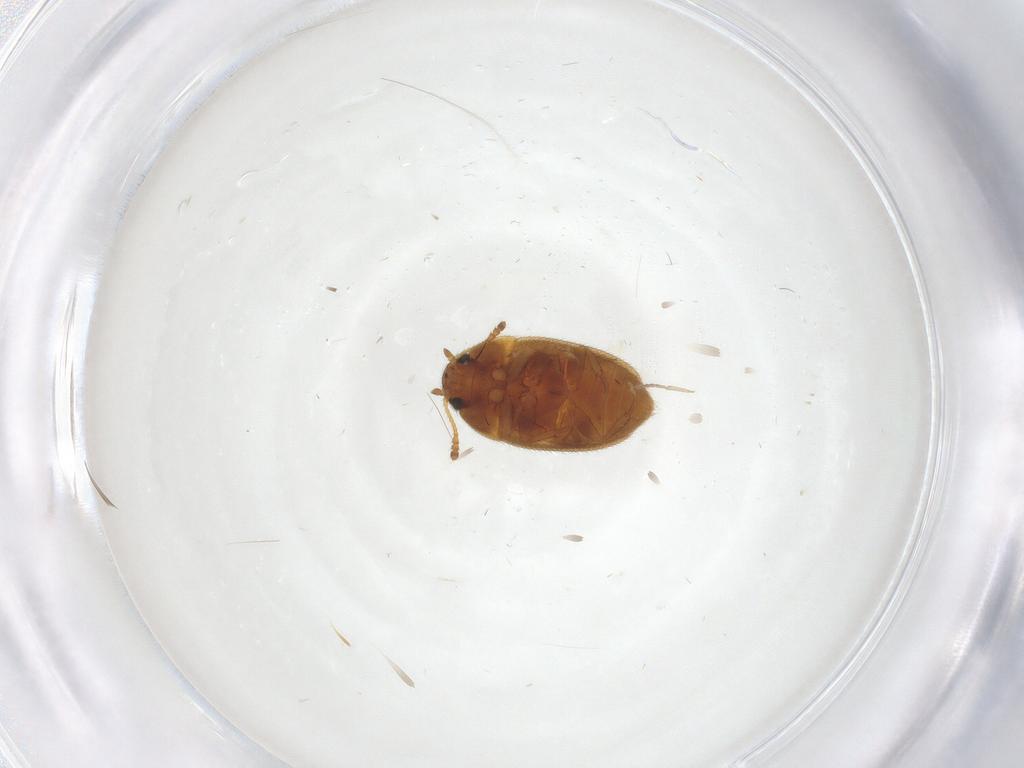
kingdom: Animalia
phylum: Arthropoda
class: Insecta
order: Coleoptera
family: Mycetophagidae
